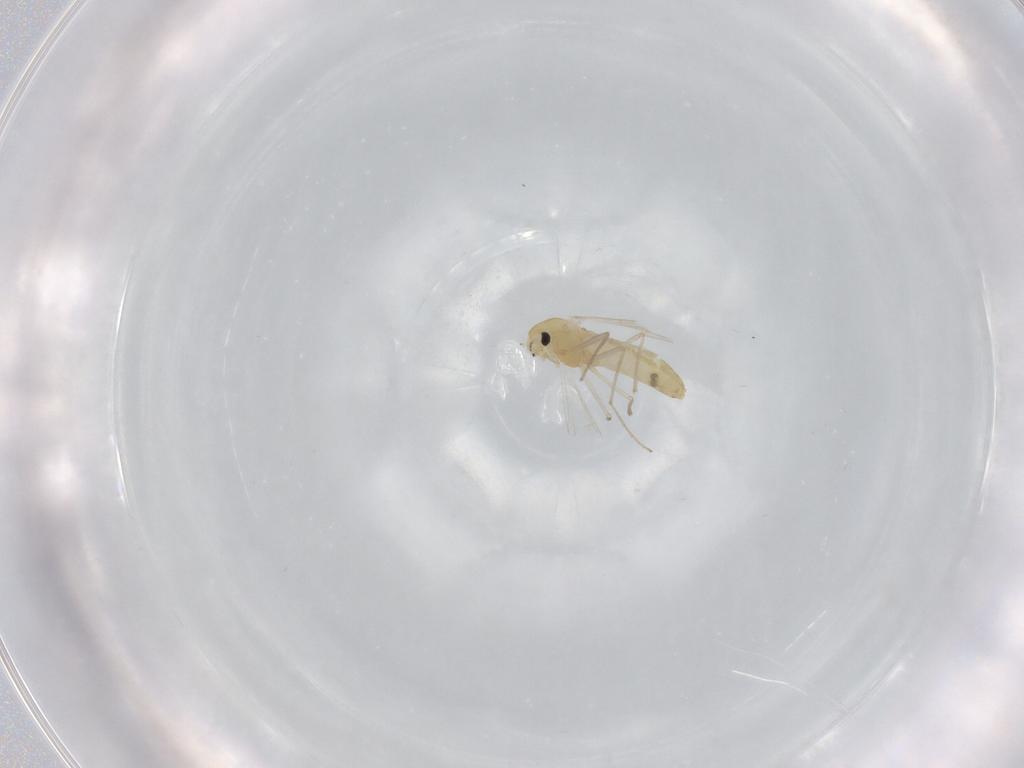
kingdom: Animalia
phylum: Arthropoda
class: Insecta
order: Diptera
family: Chironomidae
